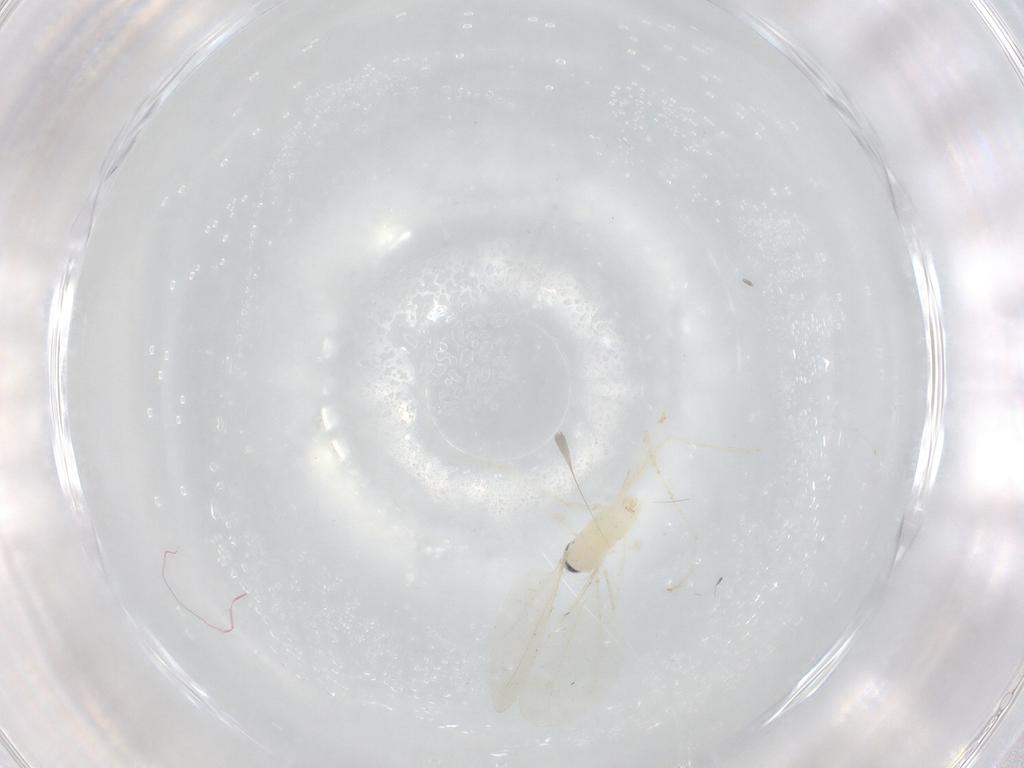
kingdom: Animalia
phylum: Arthropoda
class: Insecta
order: Diptera
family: Cecidomyiidae
